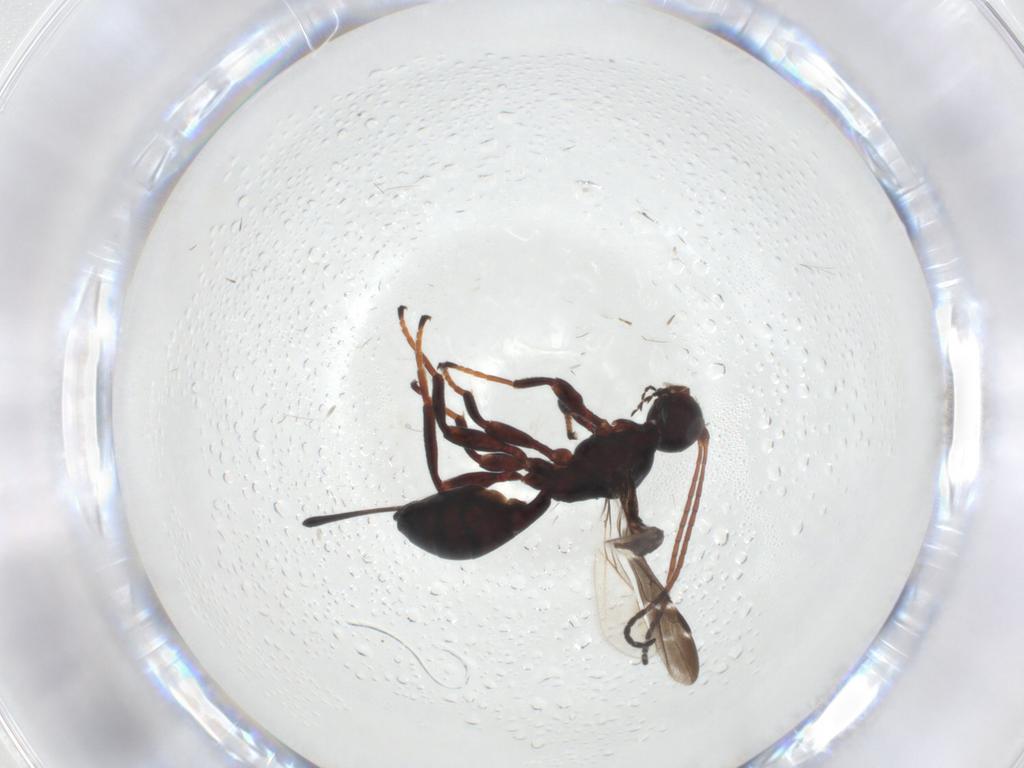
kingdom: Animalia
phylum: Arthropoda
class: Insecta
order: Hymenoptera
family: Braconidae
